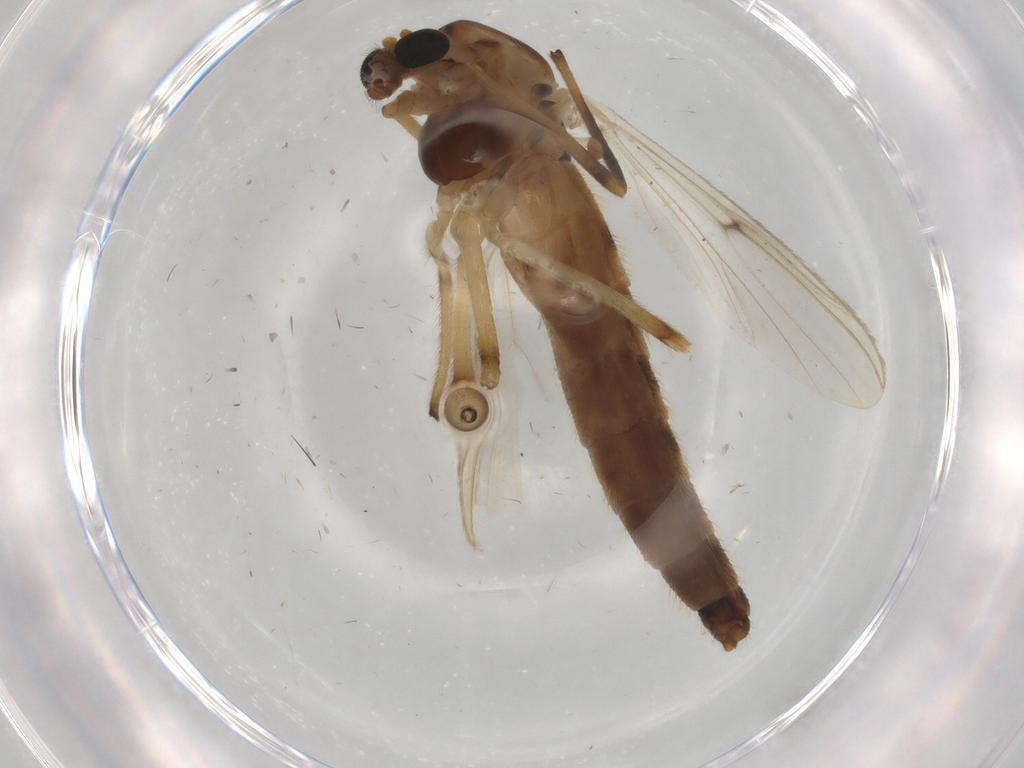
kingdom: Animalia
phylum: Arthropoda
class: Insecta
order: Diptera
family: Chironomidae
